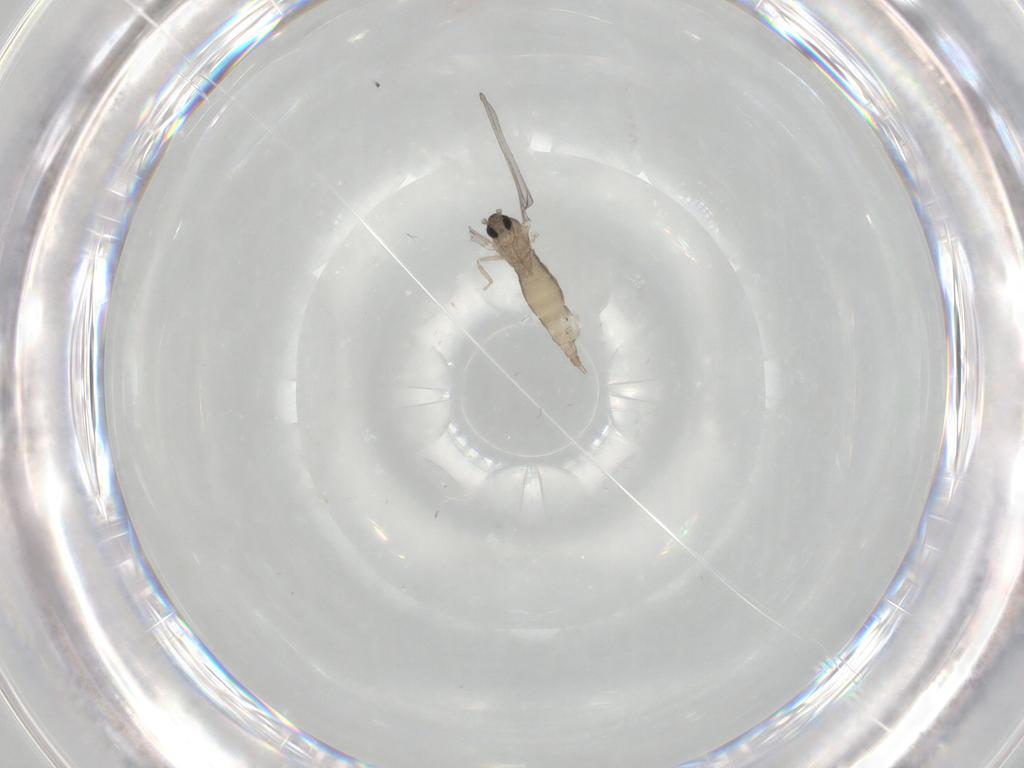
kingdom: Animalia
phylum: Arthropoda
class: Insecta
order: Diptera
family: Cecidomyiidae
